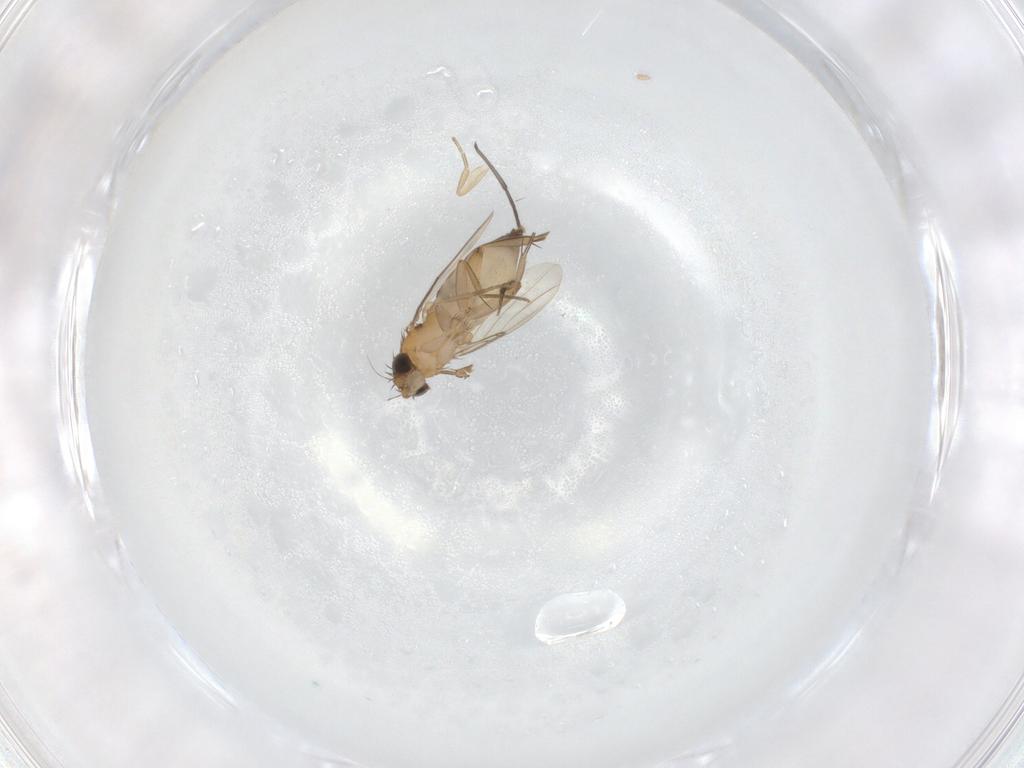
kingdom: Animalia
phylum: Arthropoda
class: Insecta
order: Diptera
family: Phoridae
